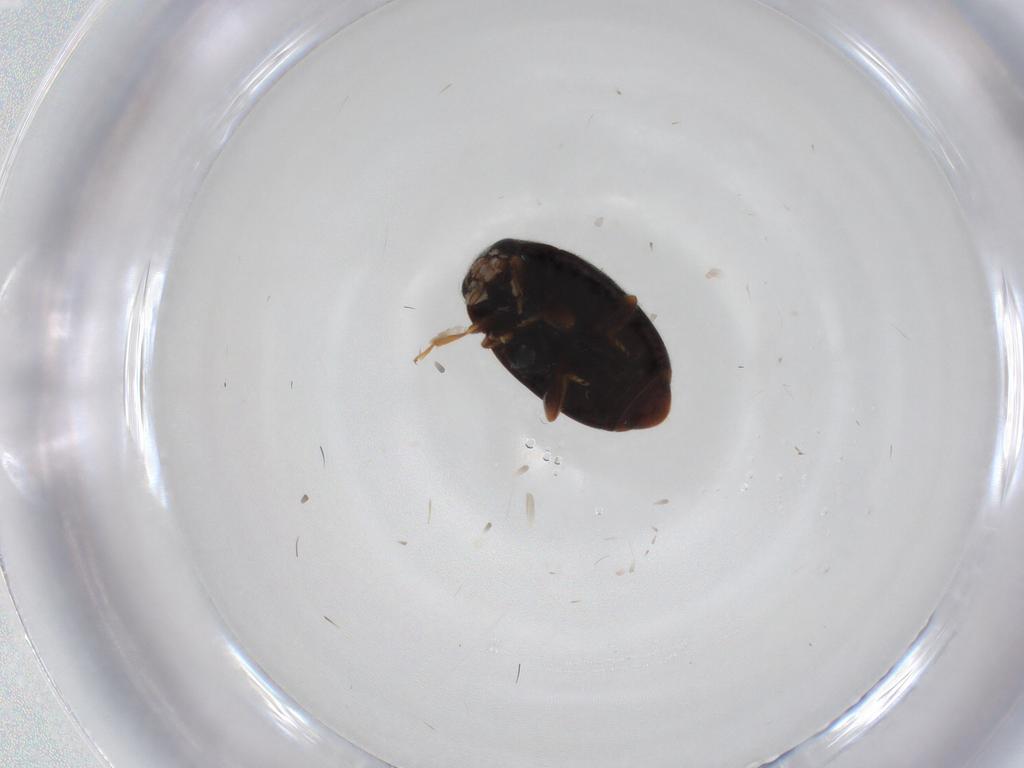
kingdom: Animalia
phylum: Arthropoda
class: Insecta
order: Coleoptera
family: Coccinellidae
